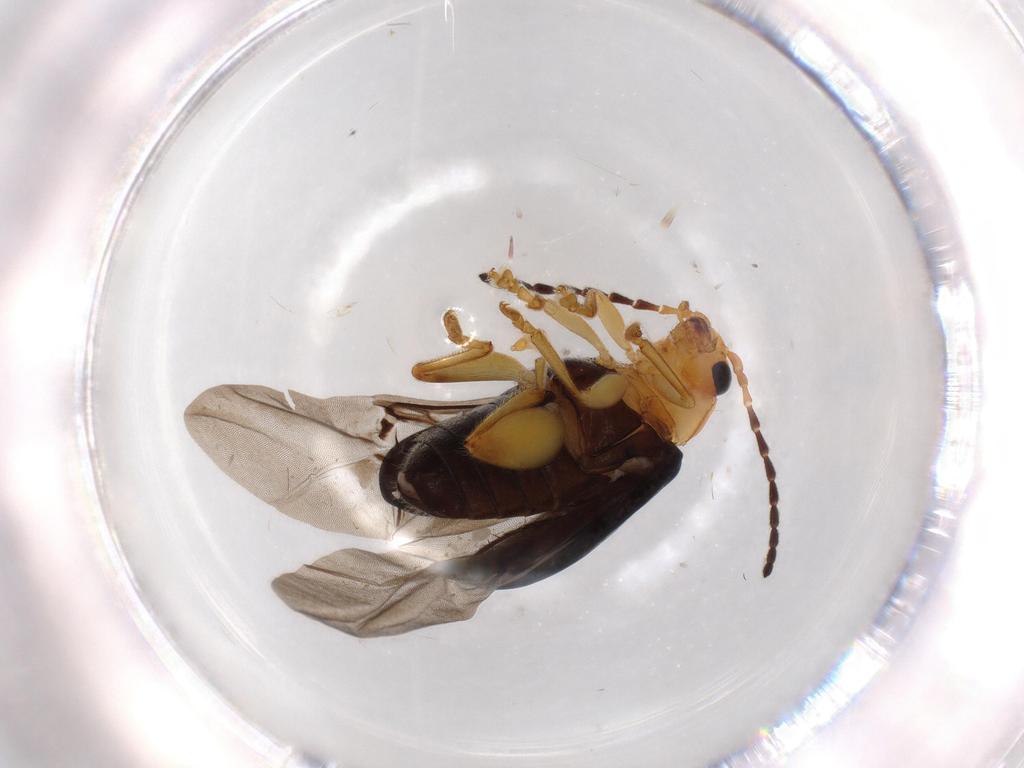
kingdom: Animalia
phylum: Arthropoda
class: Insecta
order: Coleoptera
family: Chrysomelidae
